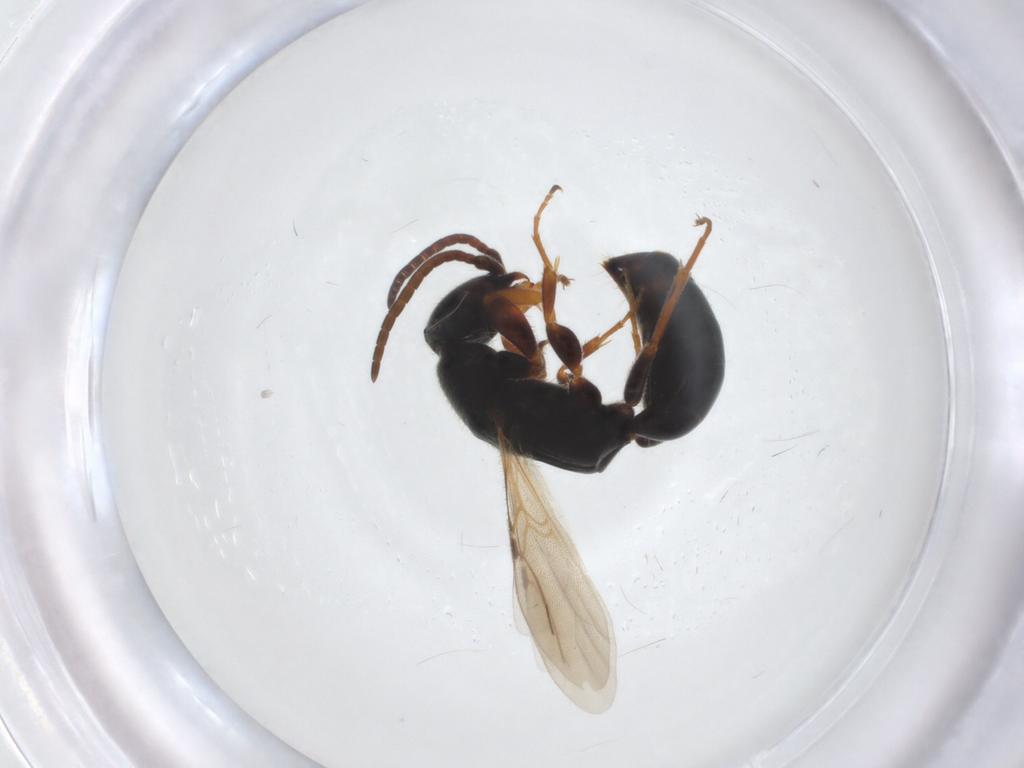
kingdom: Animalia
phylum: Arthropoda
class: Insecta
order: Hymenoptera
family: Bethylidae
